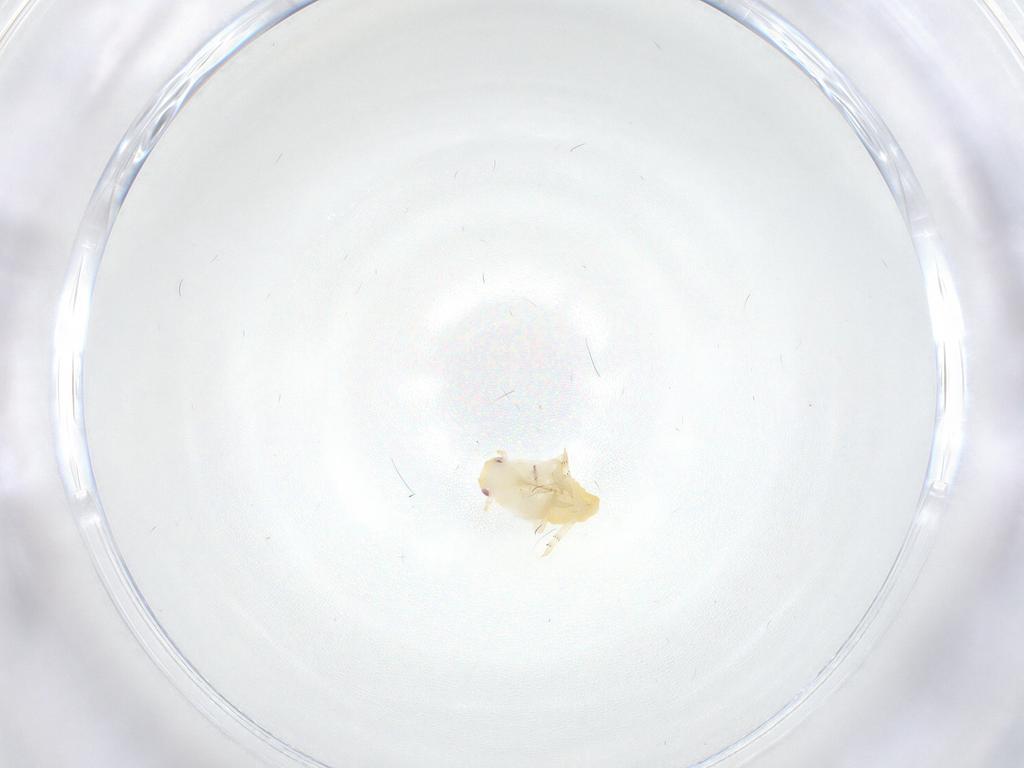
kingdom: Animalia
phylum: Arthropoda
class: Insecta
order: Hemiptera
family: Flatidae
